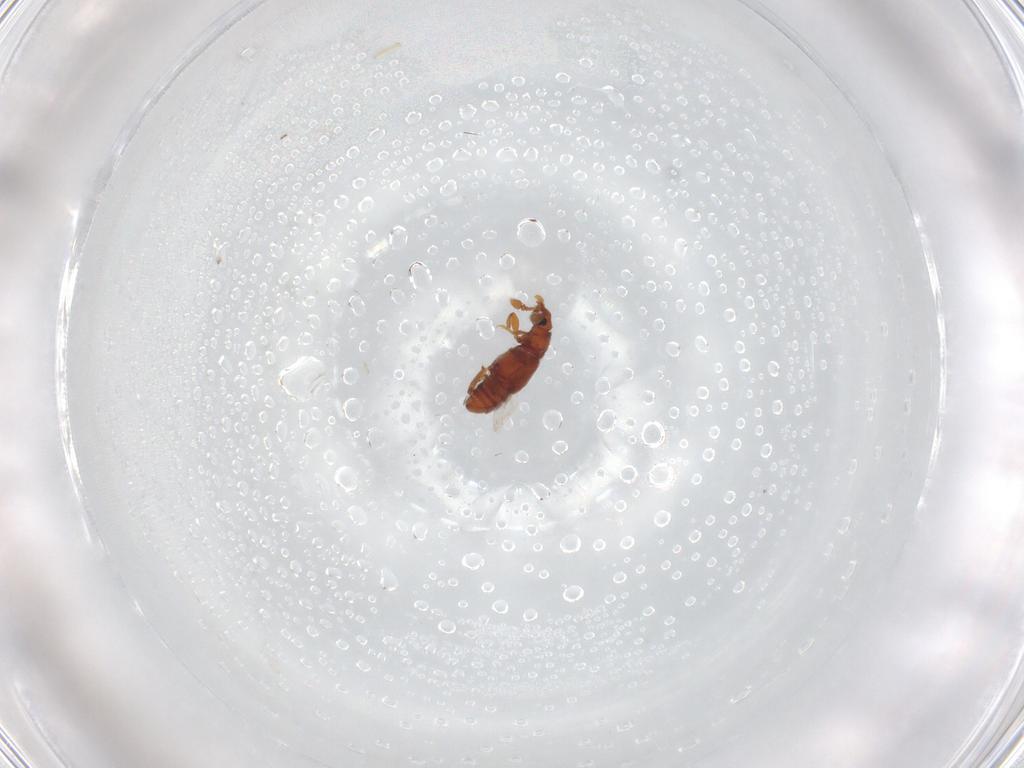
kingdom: Animalia
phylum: Arthropoda
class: Insecta
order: Coleoptera
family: Staphylinidae
